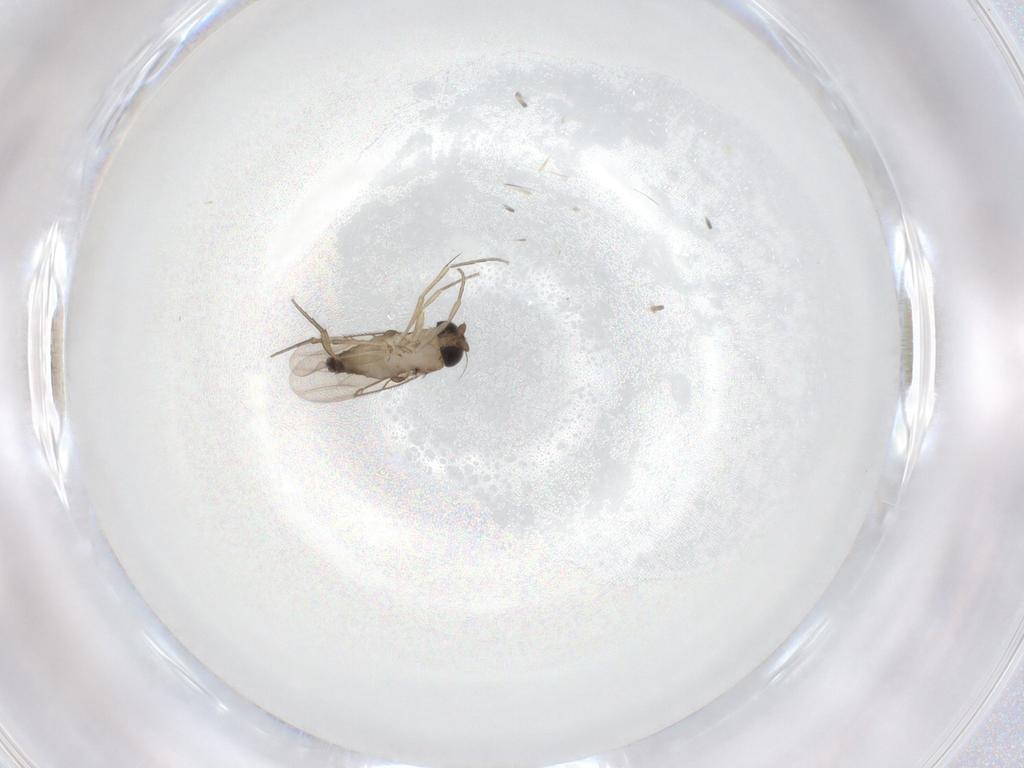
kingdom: Animalia
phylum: Arthropoda
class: Insecta
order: Diptera
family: Phoridae
